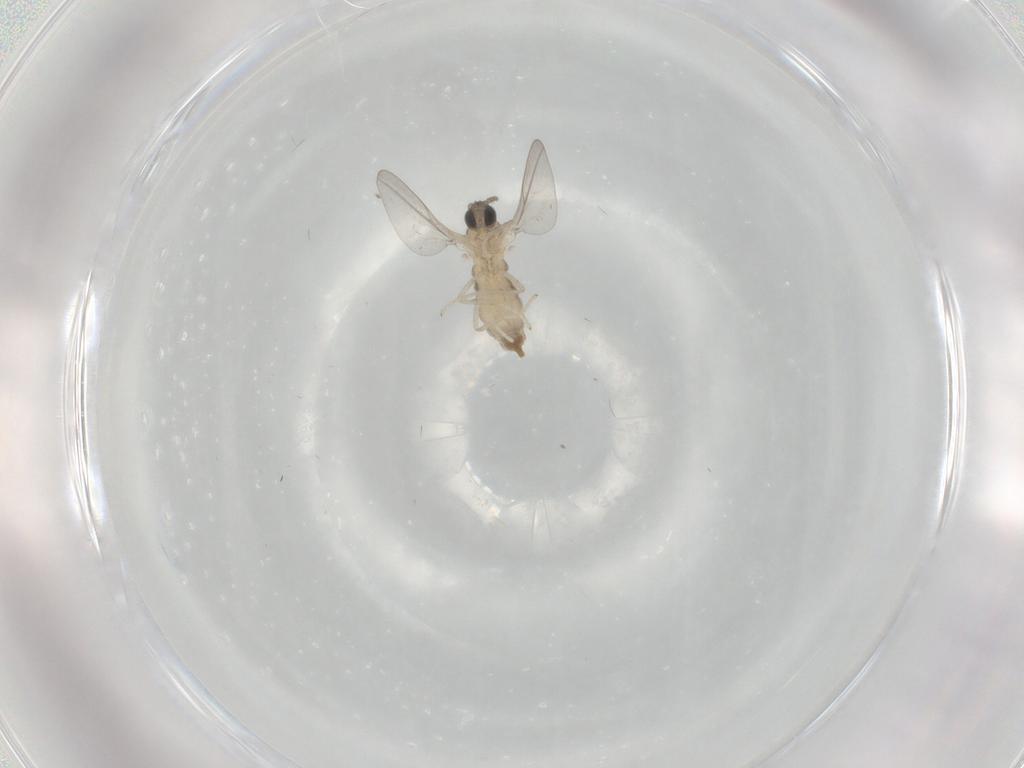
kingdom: Animalia
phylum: Arthropoda
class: Insecta
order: Diptera
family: Cecidomyiidae
